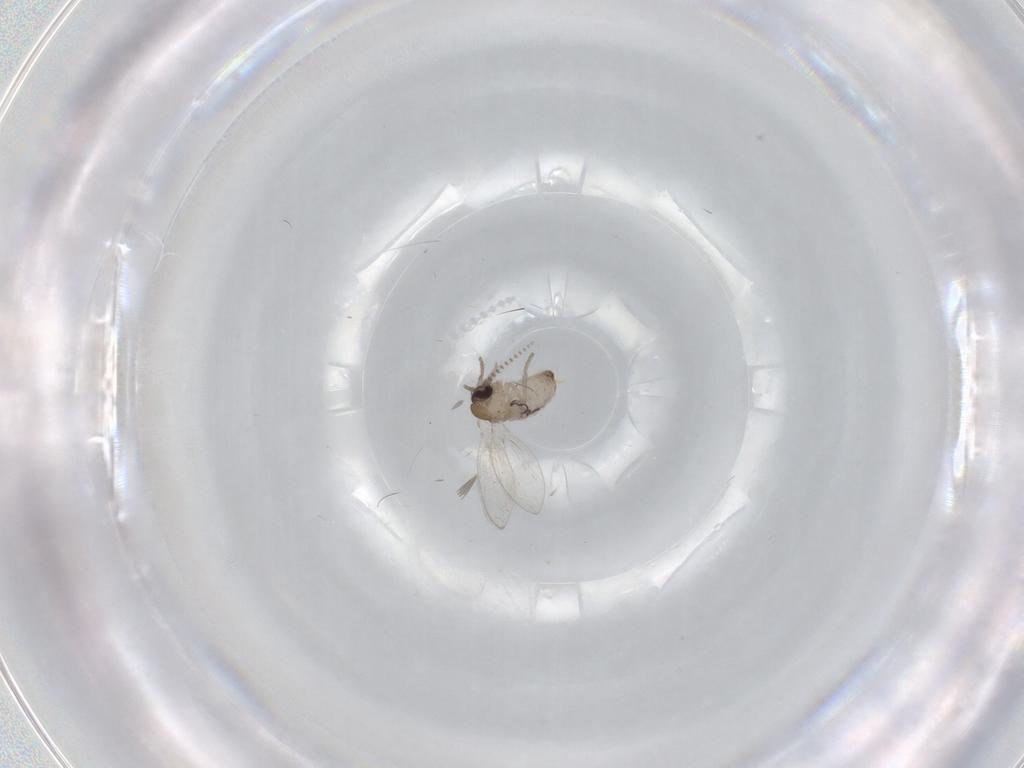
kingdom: Animalia
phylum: Arthropoda
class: Insecta
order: Diptera
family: Psychodidae
